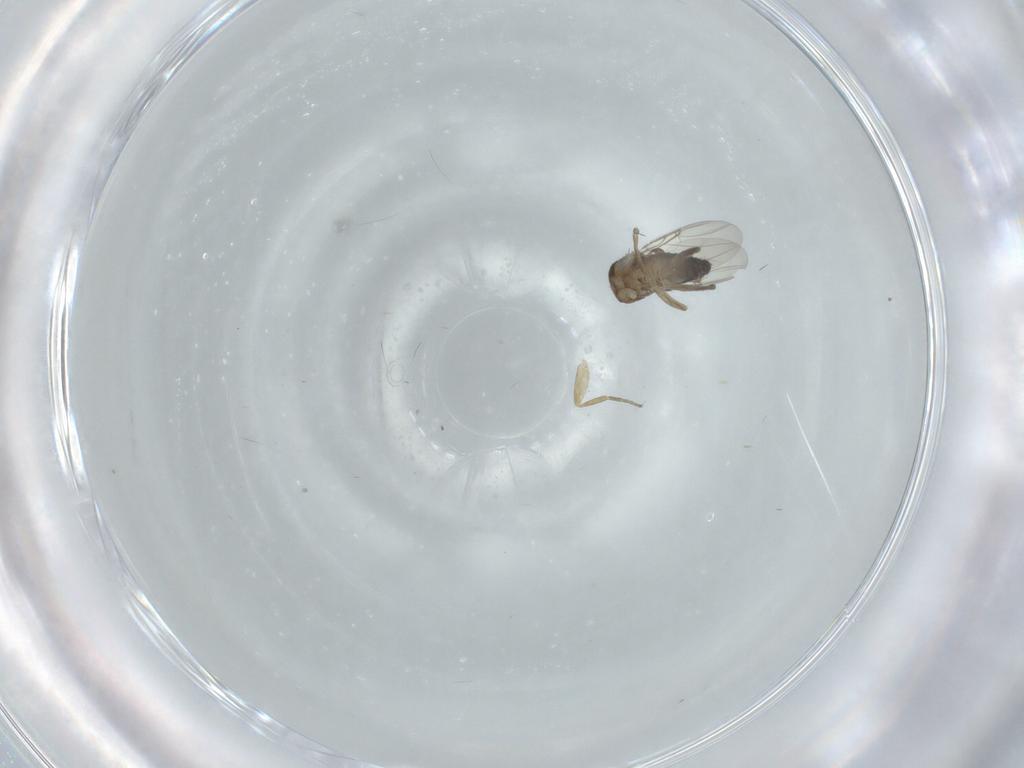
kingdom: Animalia
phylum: Arthropoda
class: Insecta
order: Diptera
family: Phoridae
